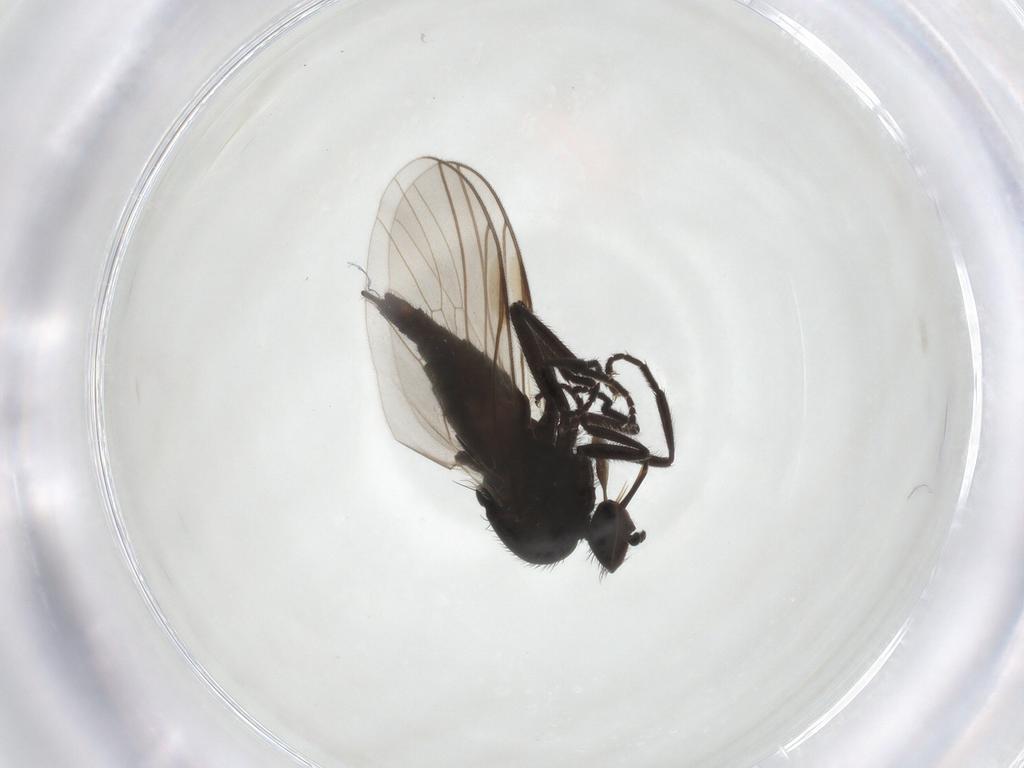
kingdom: Animalia
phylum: Arthropoda
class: Insecta
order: Diptera
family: Empididae
